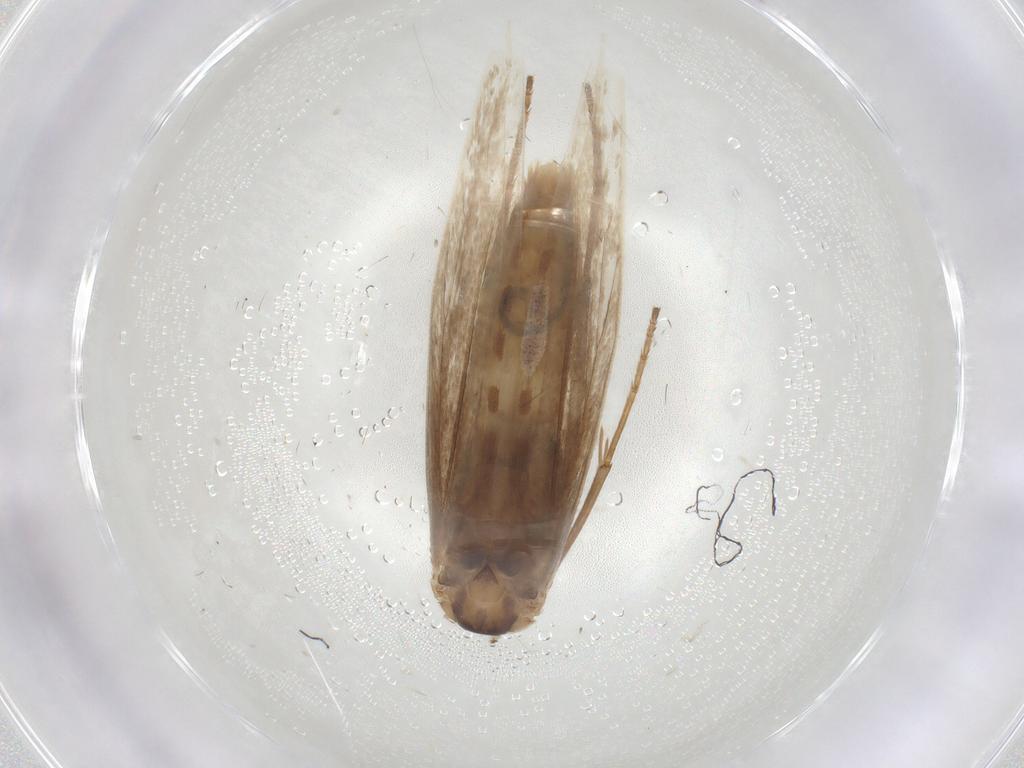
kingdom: Animalia
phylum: Arthropoda
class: Insecta
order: Lepidoptera
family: Coleophoridae
